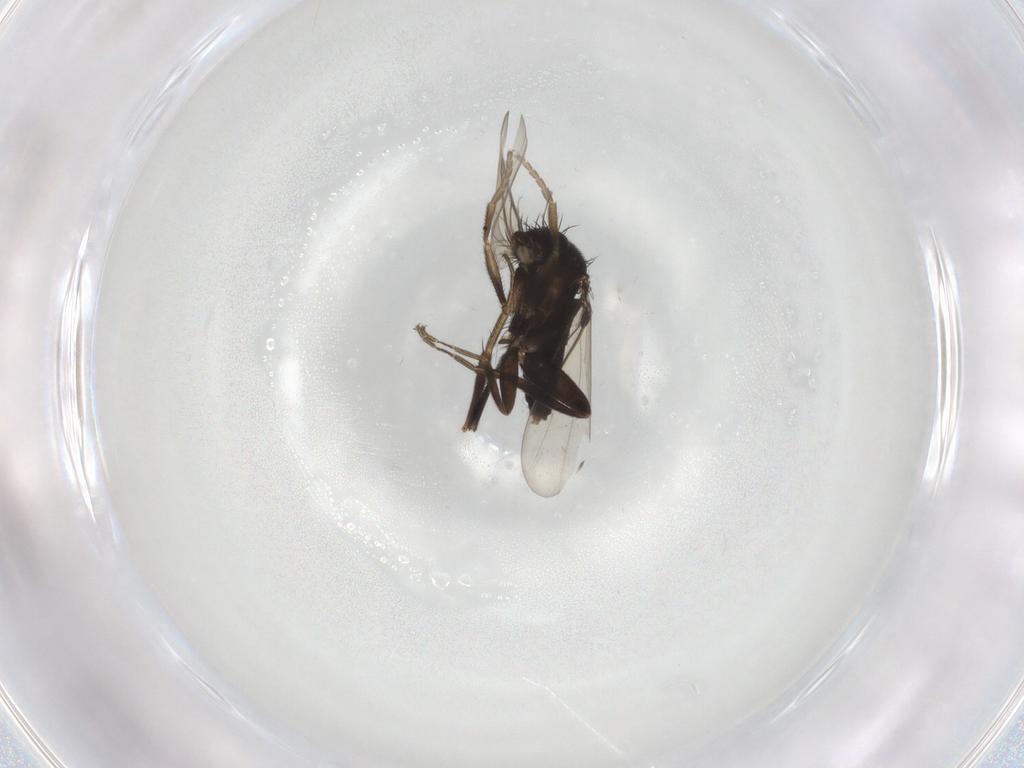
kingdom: Animalia
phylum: Arthropoda
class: Insecta
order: Diptera
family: Phoridae
